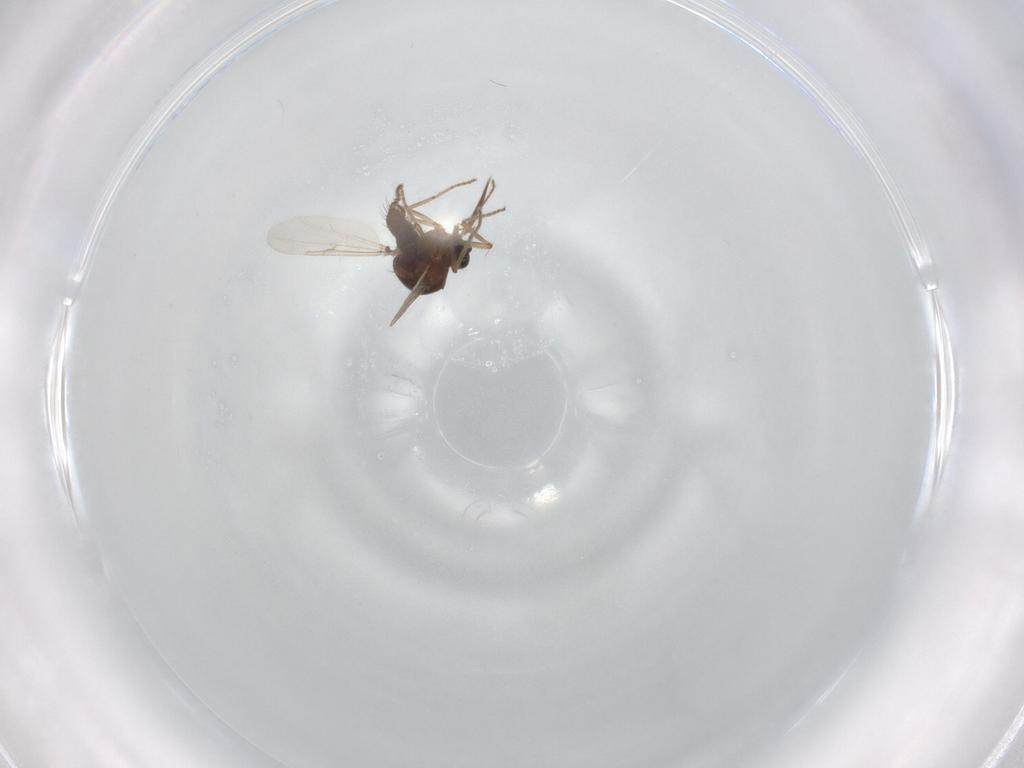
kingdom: Animalia
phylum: Arthropoda
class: Insecta
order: Diptera
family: Ceratopogonidae
